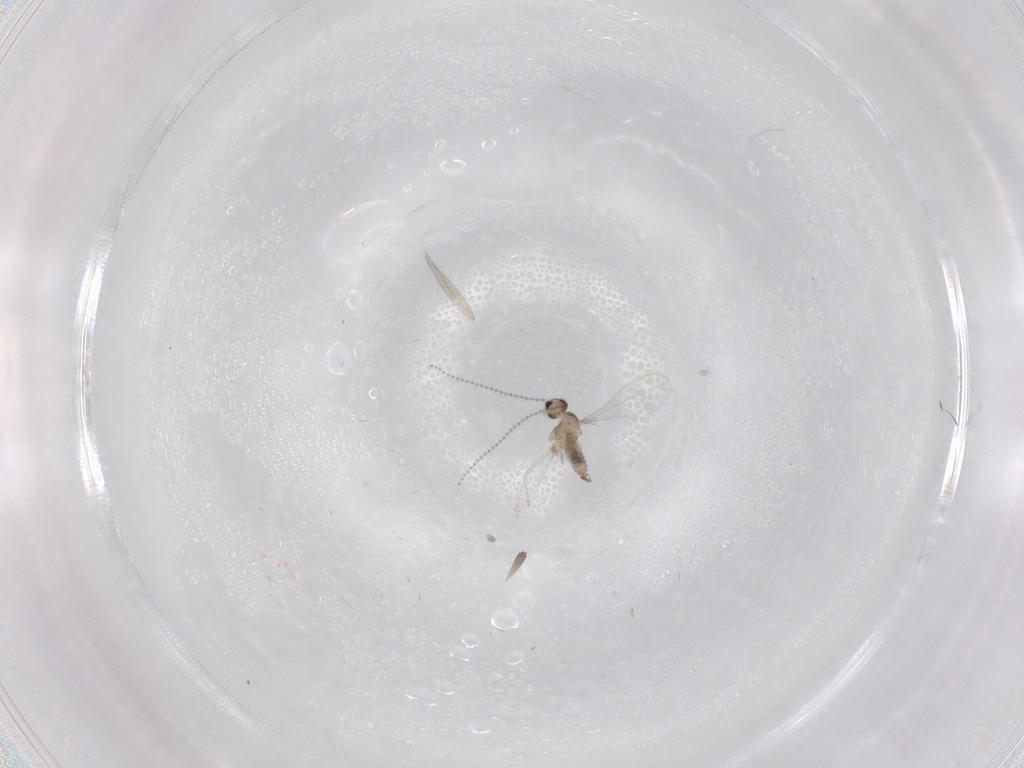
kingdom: Animalia
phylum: Arthropoda
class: Insecta
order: Diptera
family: Cecidomyiidae
